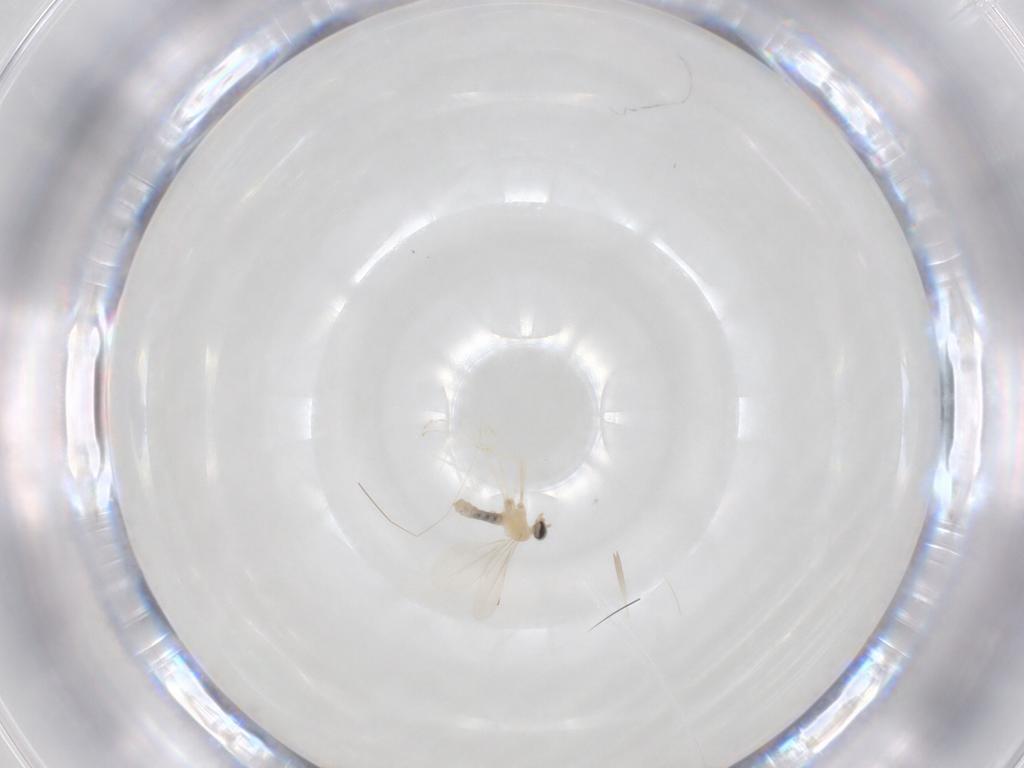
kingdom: Animalia
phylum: Arthropoda
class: Insecta
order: Diptera
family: Cecidomyiidae
